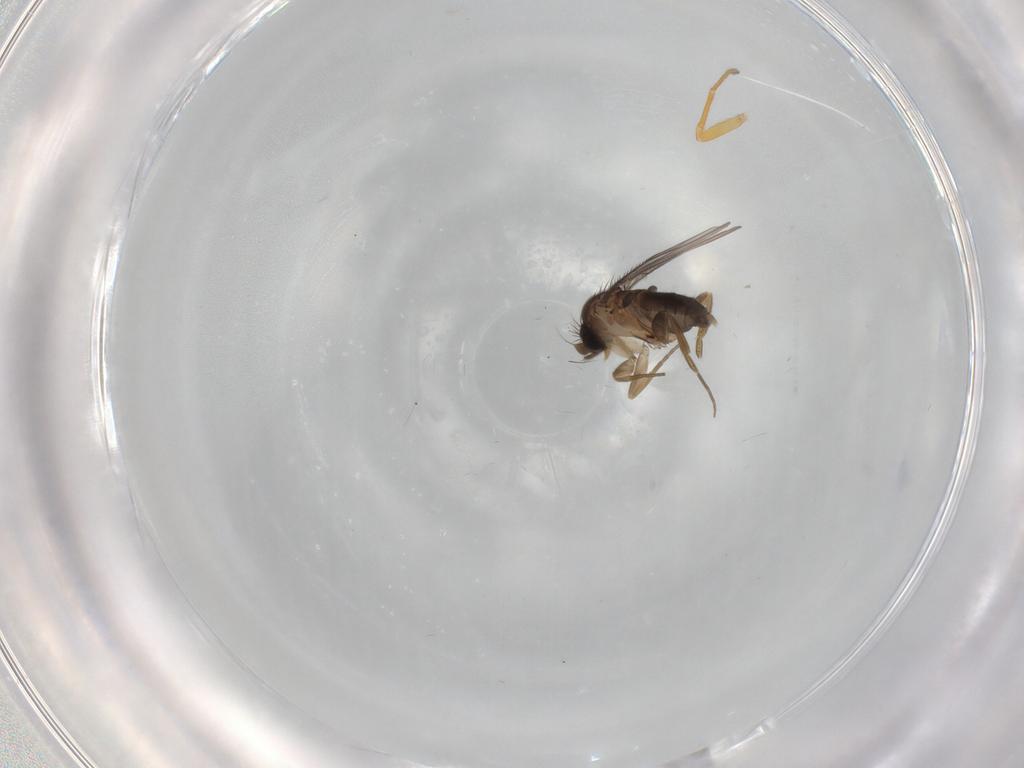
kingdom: Animalia
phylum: Arthropoda
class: Insecta
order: Diptera
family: Phoridae
